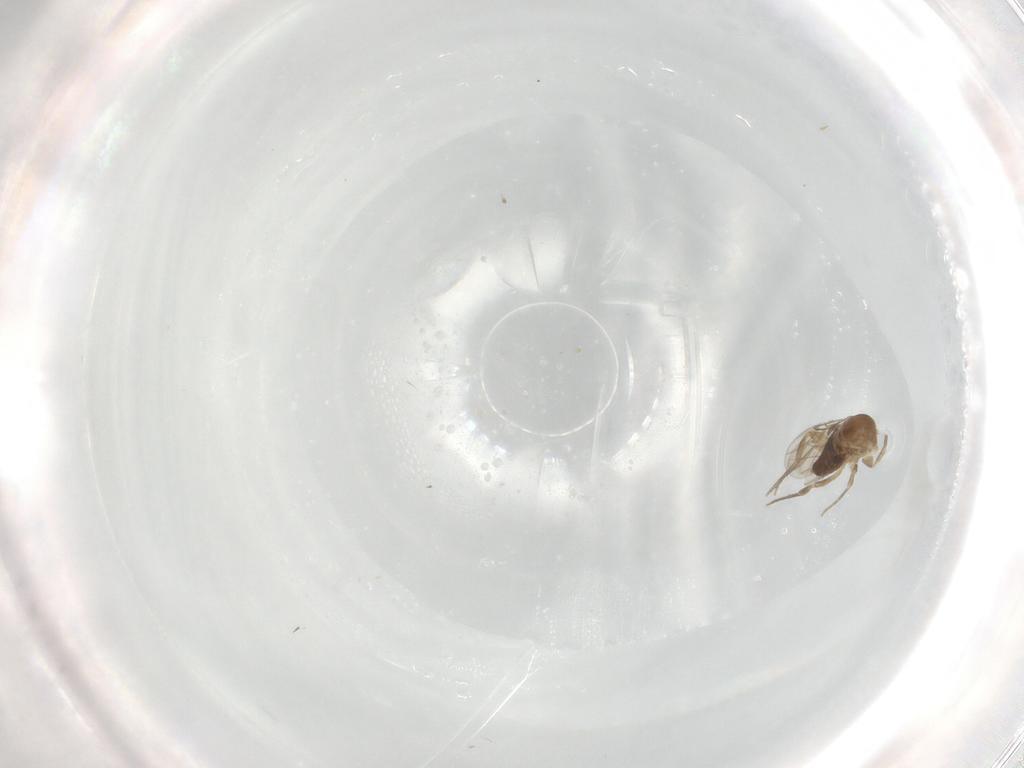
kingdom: Animalia
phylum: Arthropoda
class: Insecta
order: Diptera
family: Phoridae
